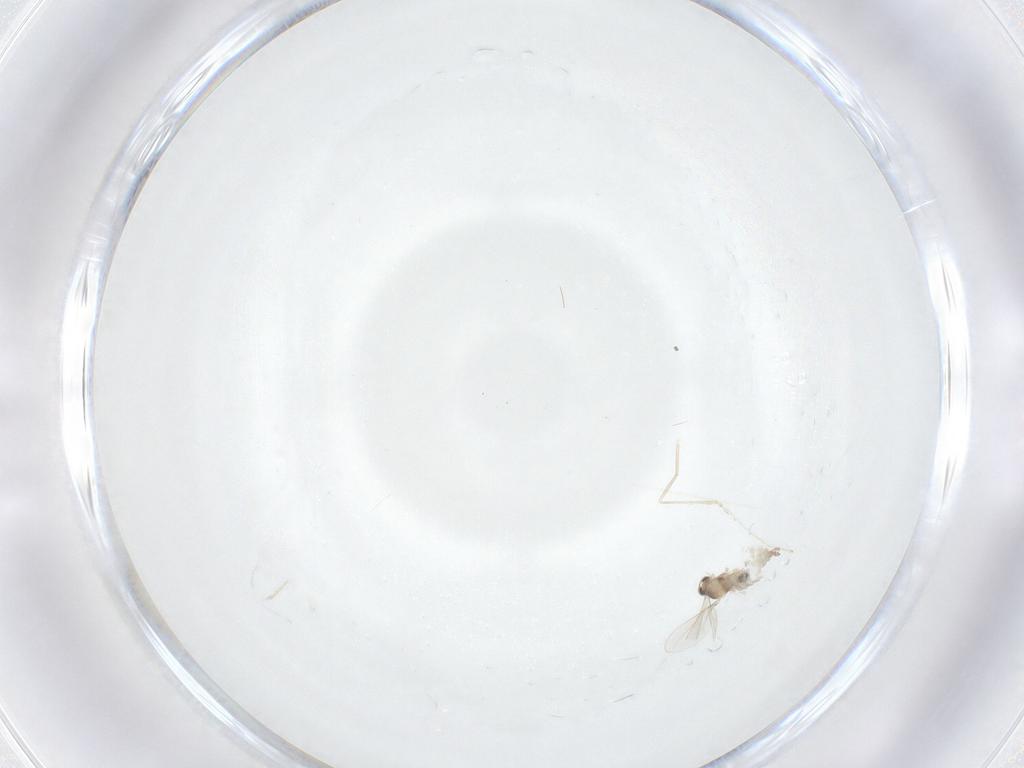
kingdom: Animalia
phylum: Arthropoda
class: Insecta
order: Diptera
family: Cecidomyiidae
